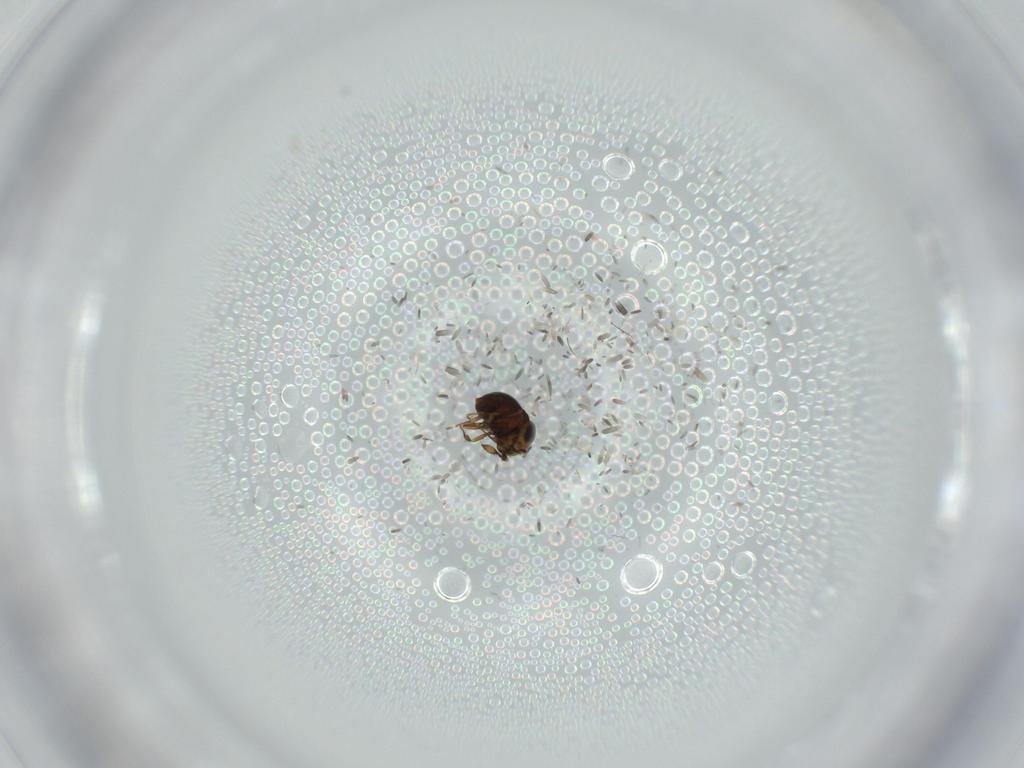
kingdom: Animalia
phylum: Arthropoda
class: Insecta
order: Hymenoptera
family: Scelionidae
